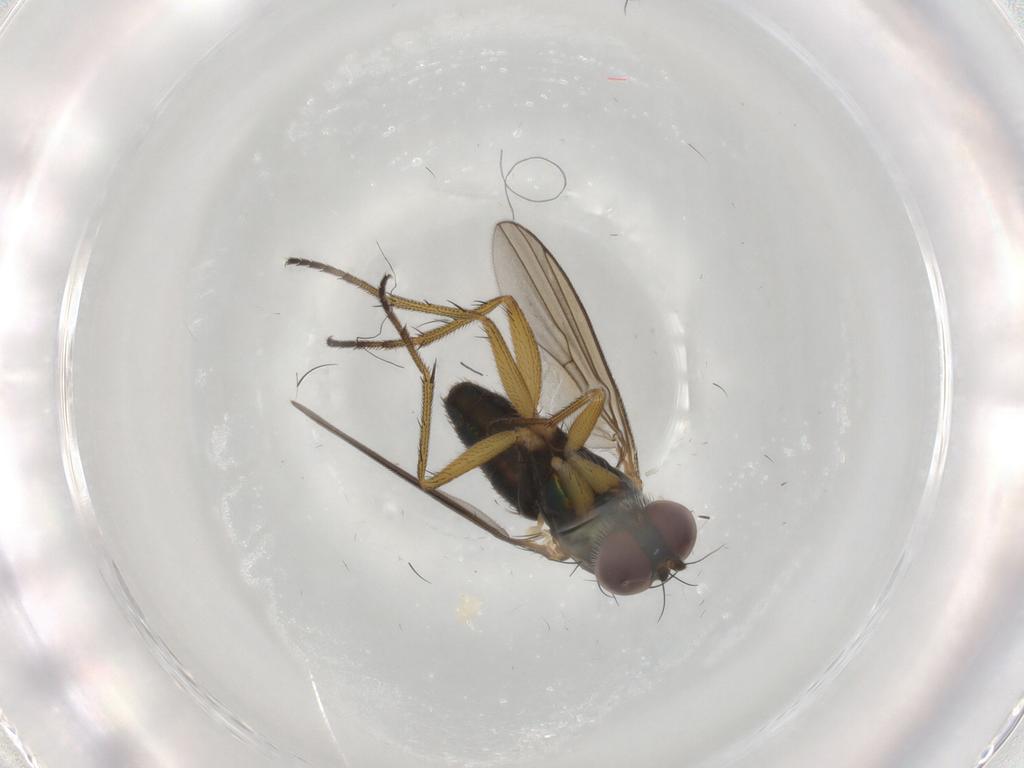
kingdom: Animalia
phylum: Arthropoda
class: Insecta
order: Diptera
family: Dolichopodidae
